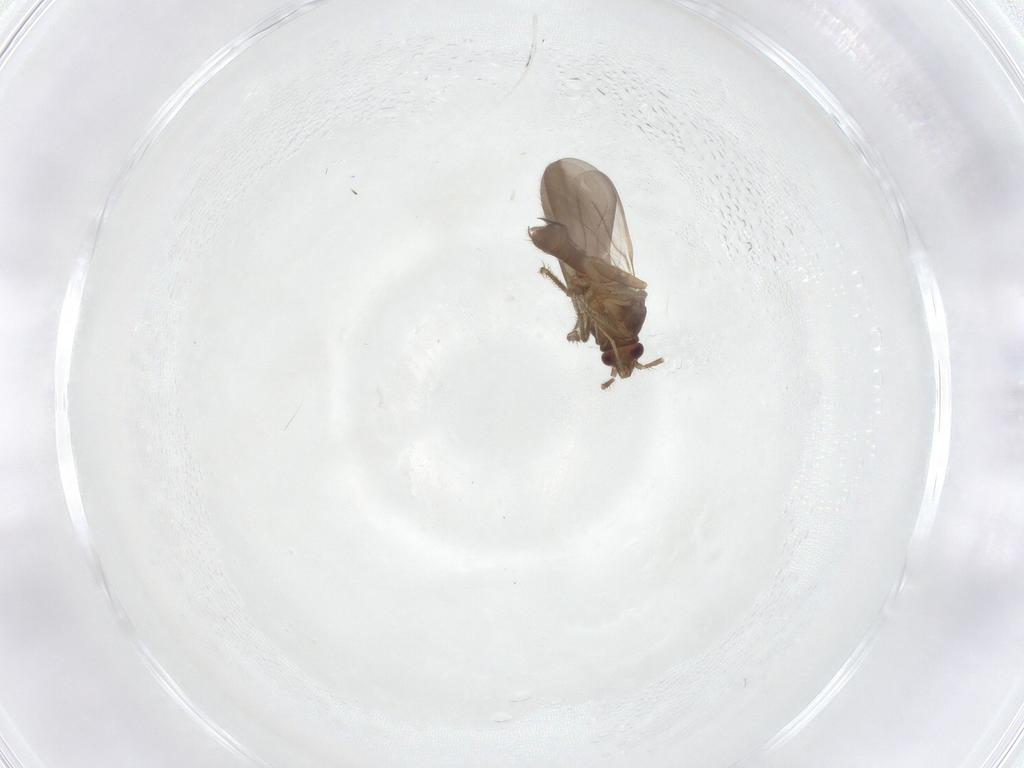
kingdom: Animalia
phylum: Arthropoda
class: Insecta
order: Hemiptera
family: Ceratocombidae
